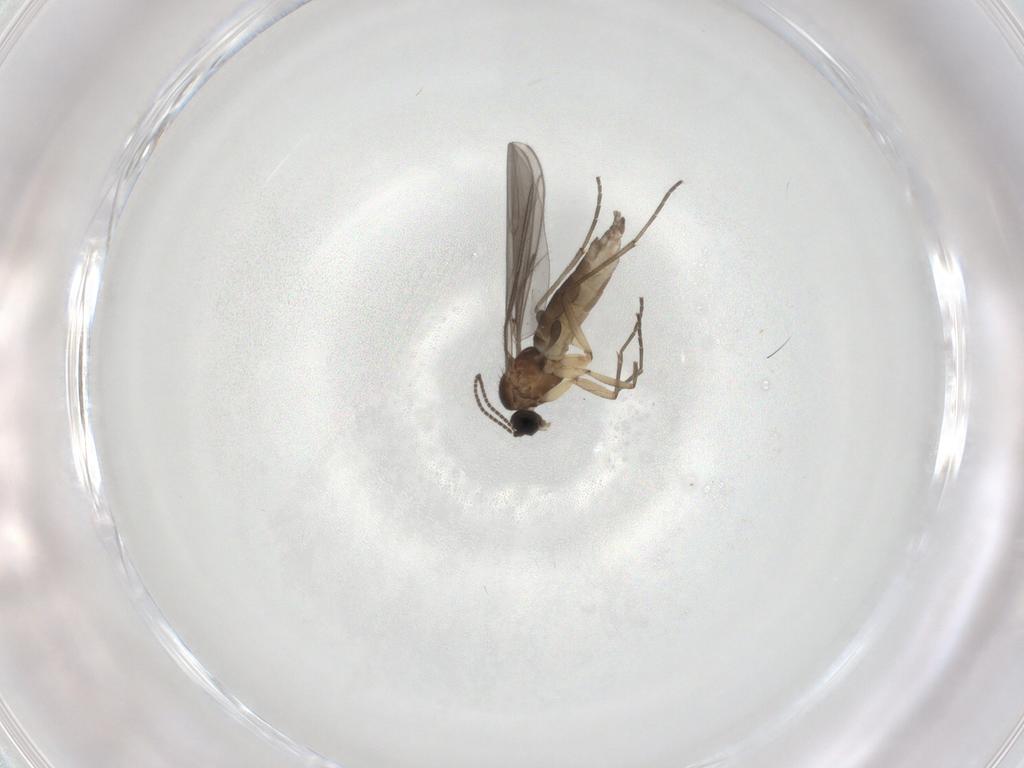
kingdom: Animalia
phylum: Arthropoda
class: Insecta
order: Diptera
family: Sciaridae
